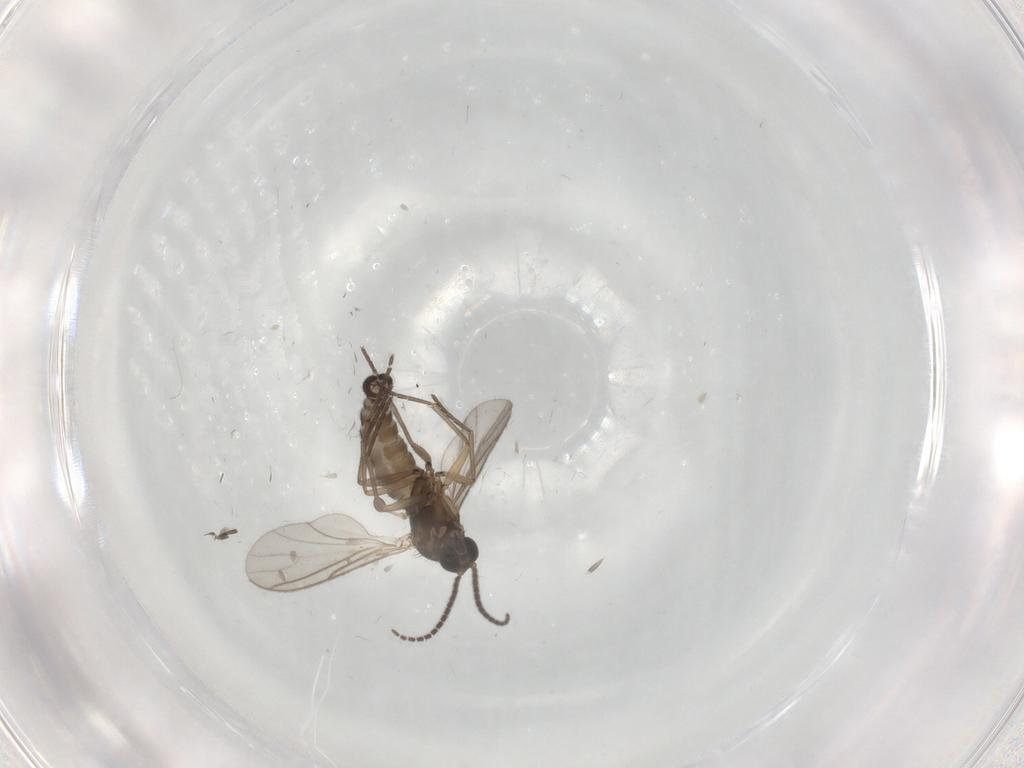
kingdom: Animalia
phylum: Arthropoda
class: Insecta
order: Diptera
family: Sciaridae
